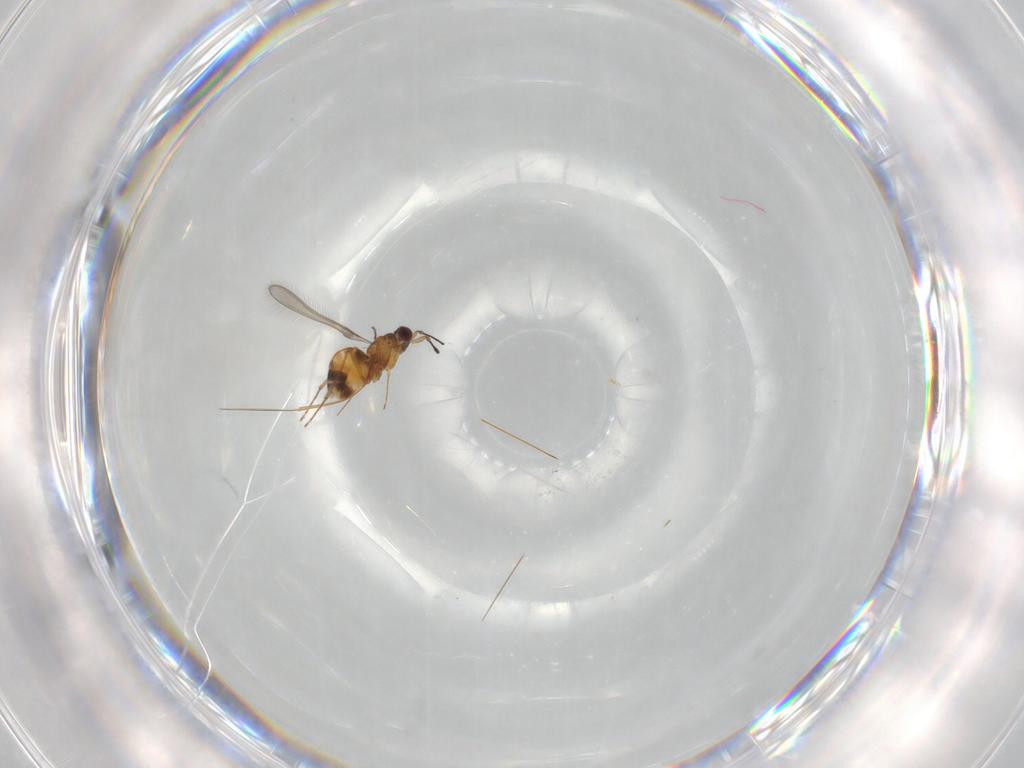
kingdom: Animalia
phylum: Arthropoda
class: Insecta
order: Hymenoptera
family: Mymaridae
